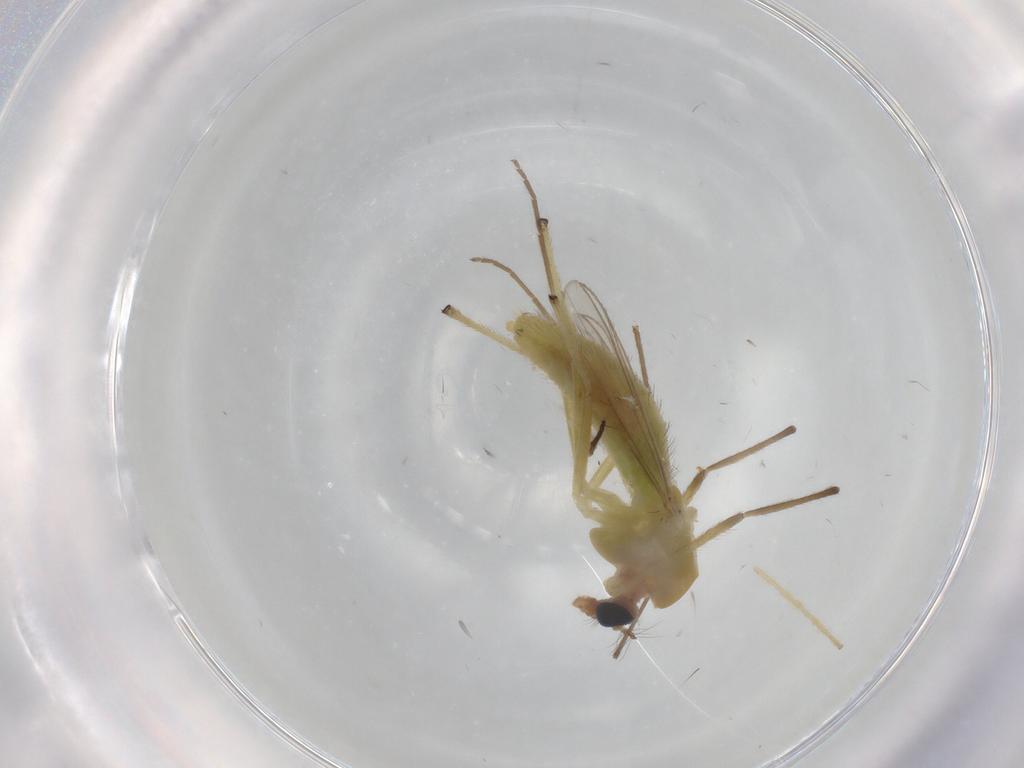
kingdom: Animalia
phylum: Arthropoda
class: Insecta
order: Diptera
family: Chironomidae
